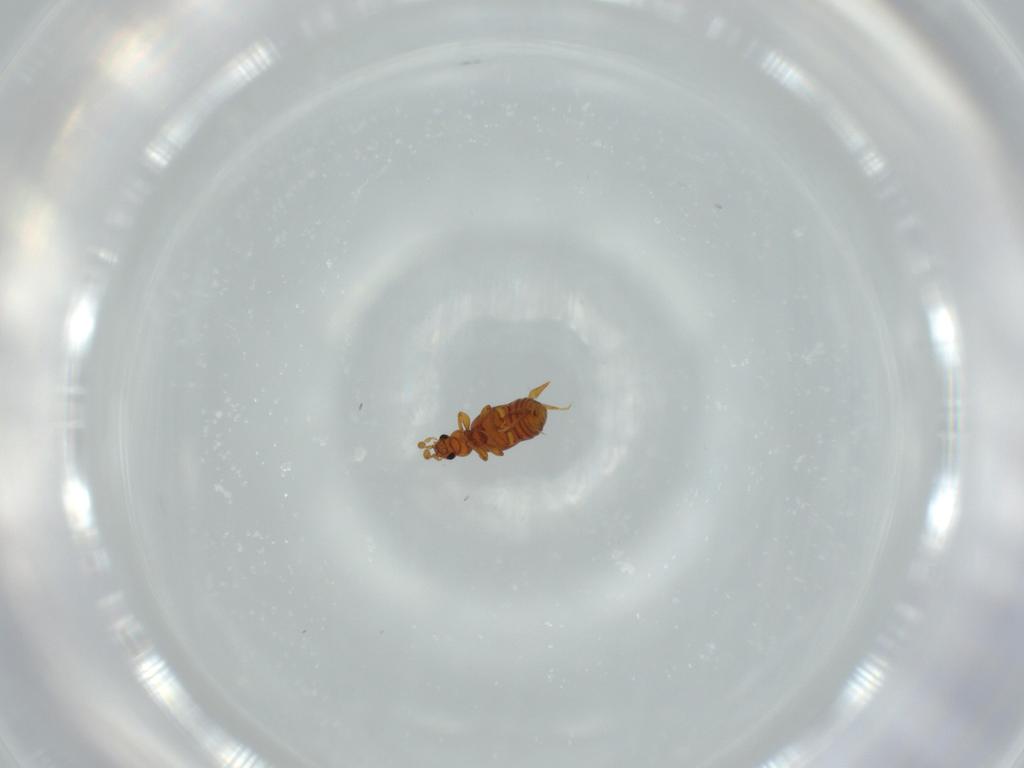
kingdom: Animalia
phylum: Arthropoda
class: Insecta
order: Coleoptera
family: Staphylinidae
